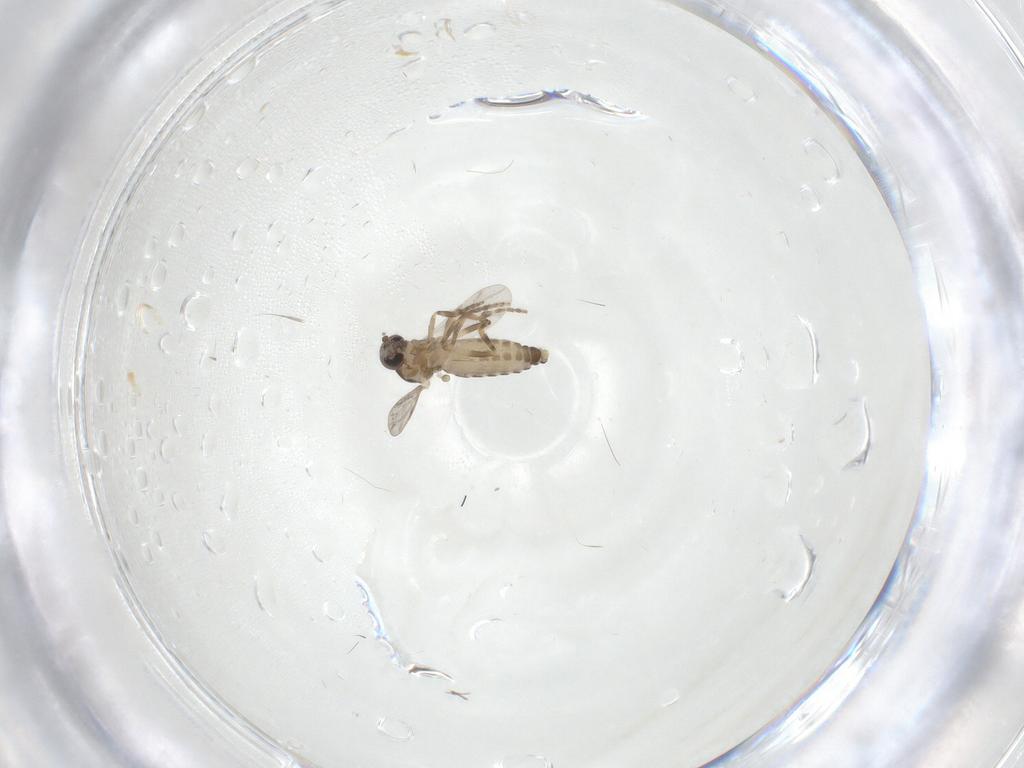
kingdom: Animalia
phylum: Arthropoda
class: Insecta
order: Diptera
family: Ceratopogonidae
